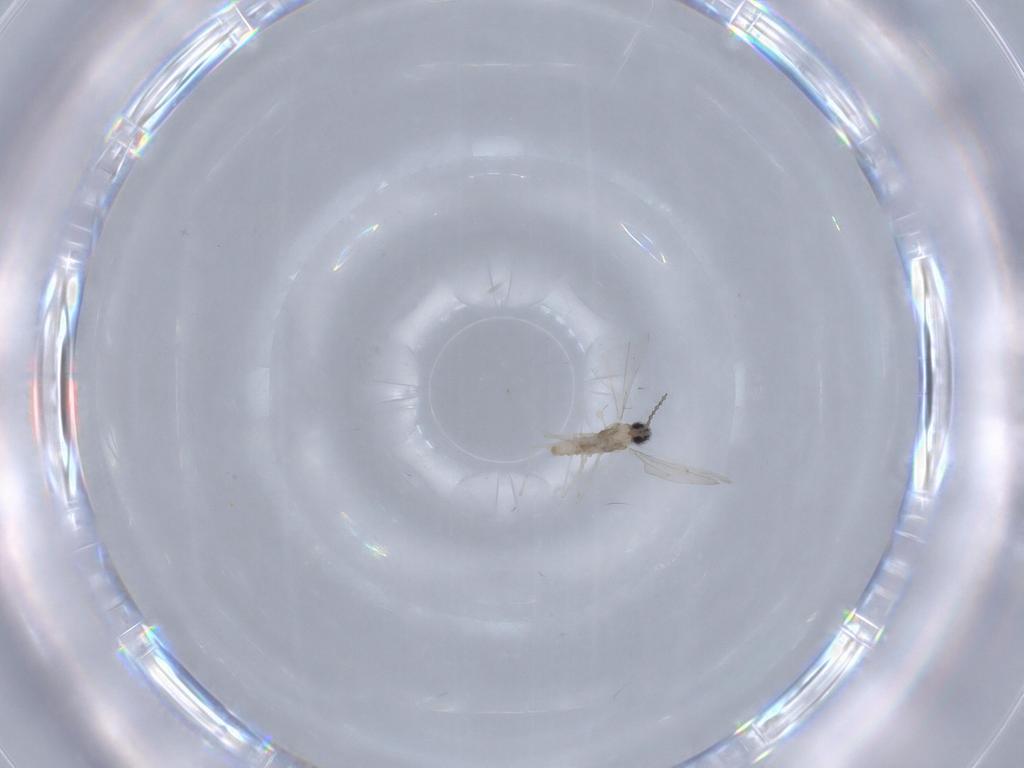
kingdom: Animalia
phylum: Arthropoda
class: Insecta
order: Diptera
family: Cecidomyiidae
